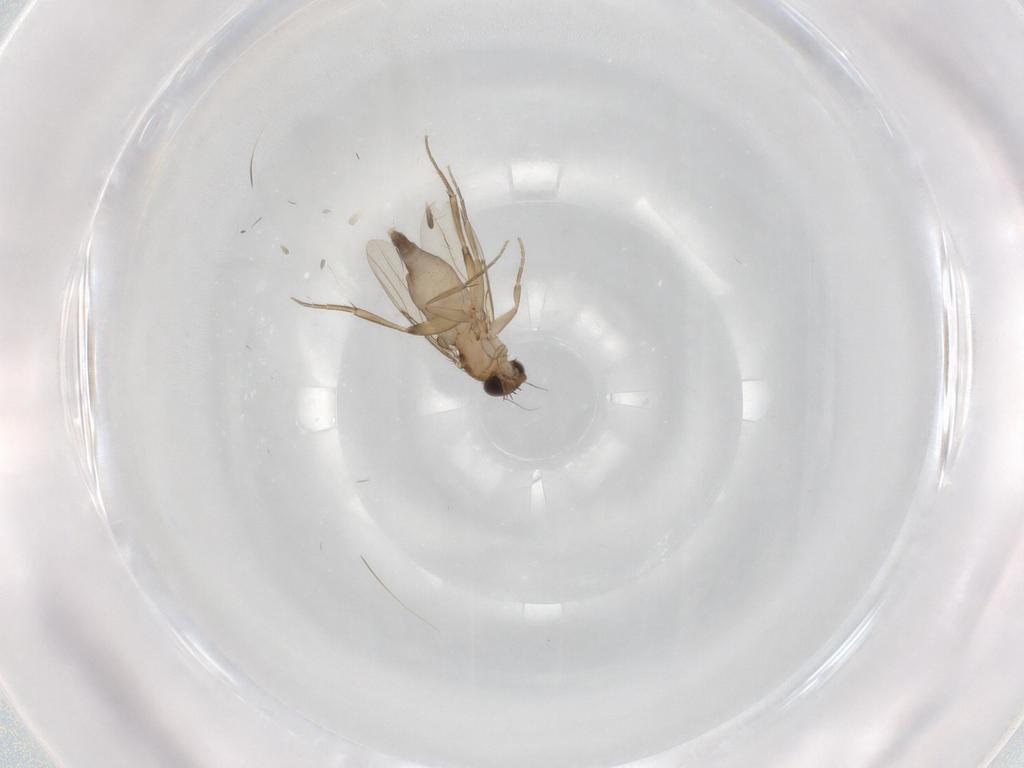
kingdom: Animalia
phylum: Arthropoda
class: Insecta
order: Diptera
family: Phoridae
